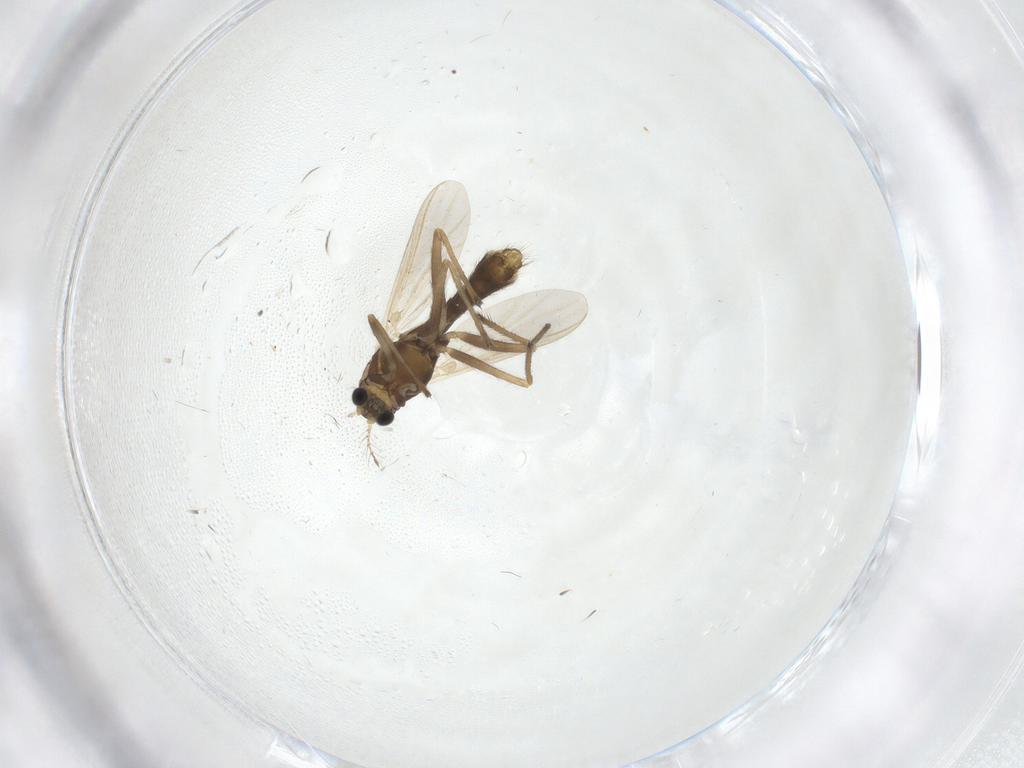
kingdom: Animalia
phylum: Arthropoda
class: Insecta
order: Diptera
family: Chironomidae
